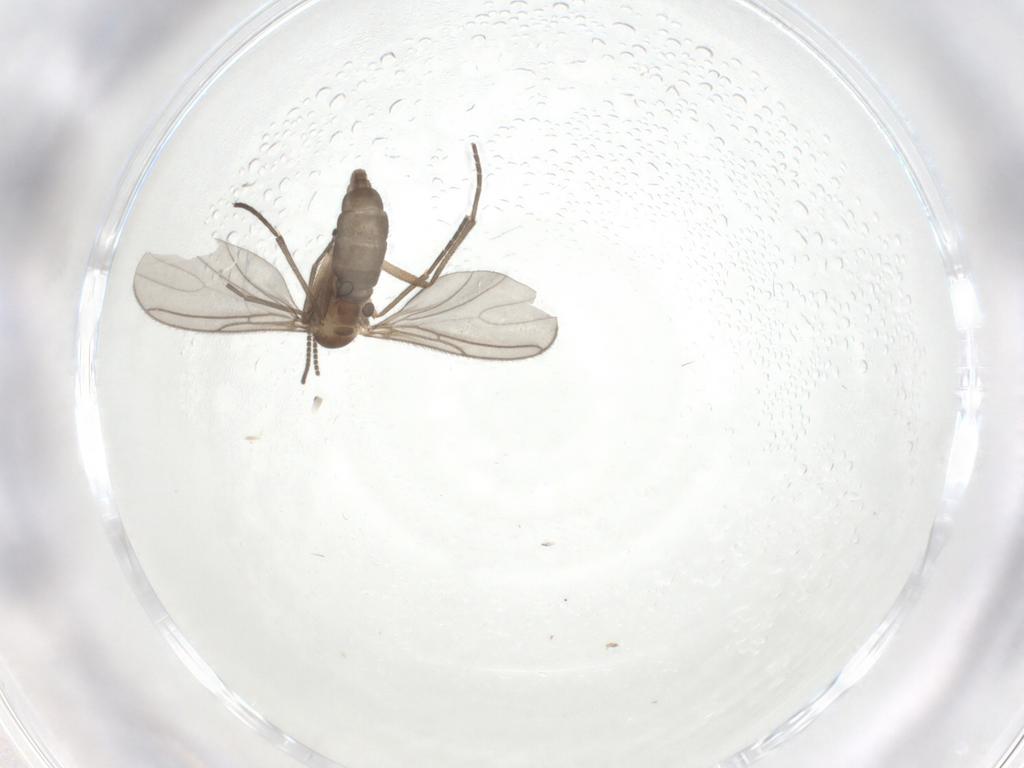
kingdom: Animalia
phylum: Arthropoda
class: Insecta
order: Diptera
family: Sciaridae
